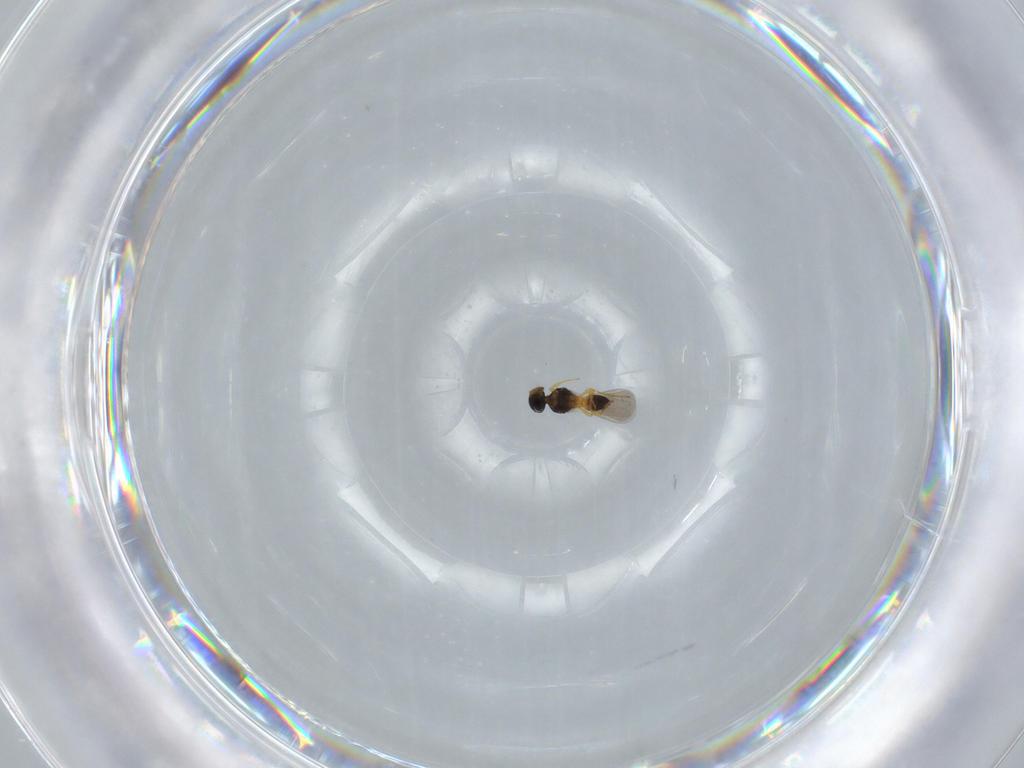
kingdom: Animalia
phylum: Arthropoda
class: Insecta
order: Hymenoptera
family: Platygastridae
